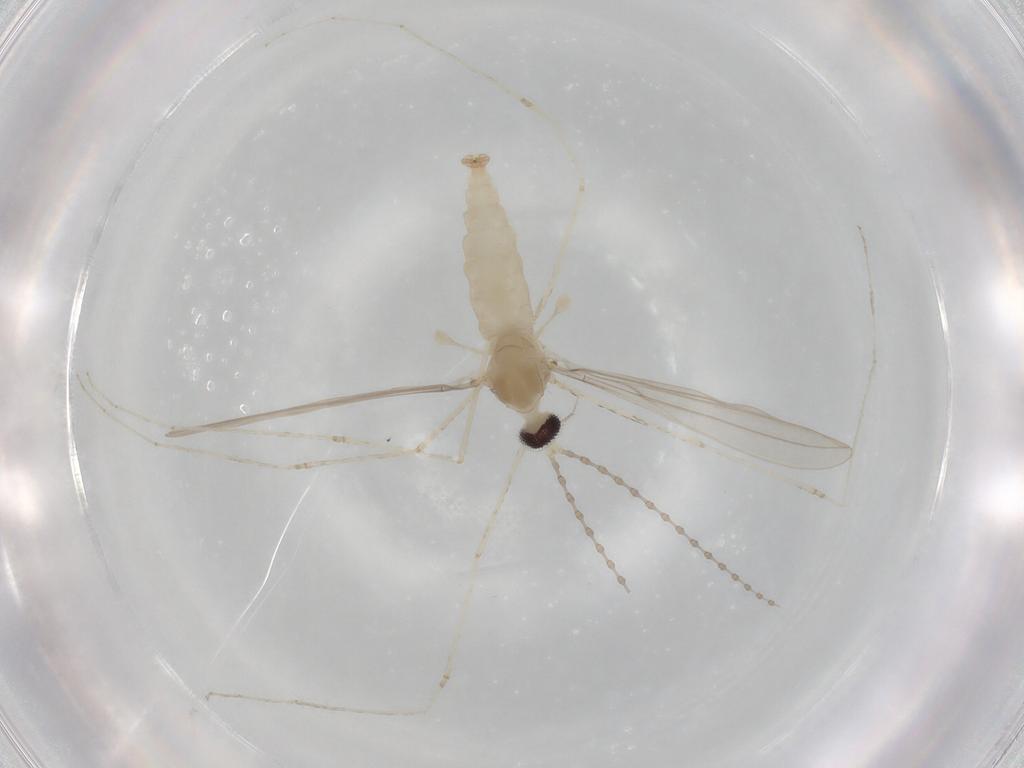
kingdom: Animalia
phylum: Arthropoda
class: Insecta
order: Diptera
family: Cecidomyiidae
